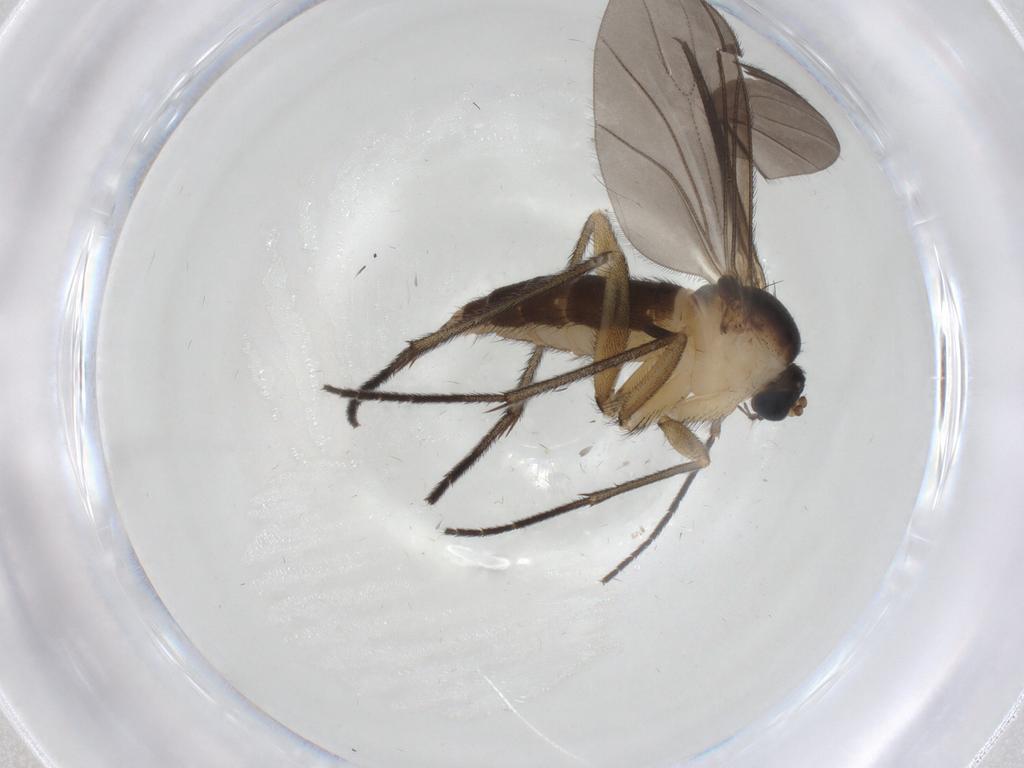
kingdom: Animalia
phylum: Arthropoda
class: Insecta
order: Diptera
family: Sciaridae
